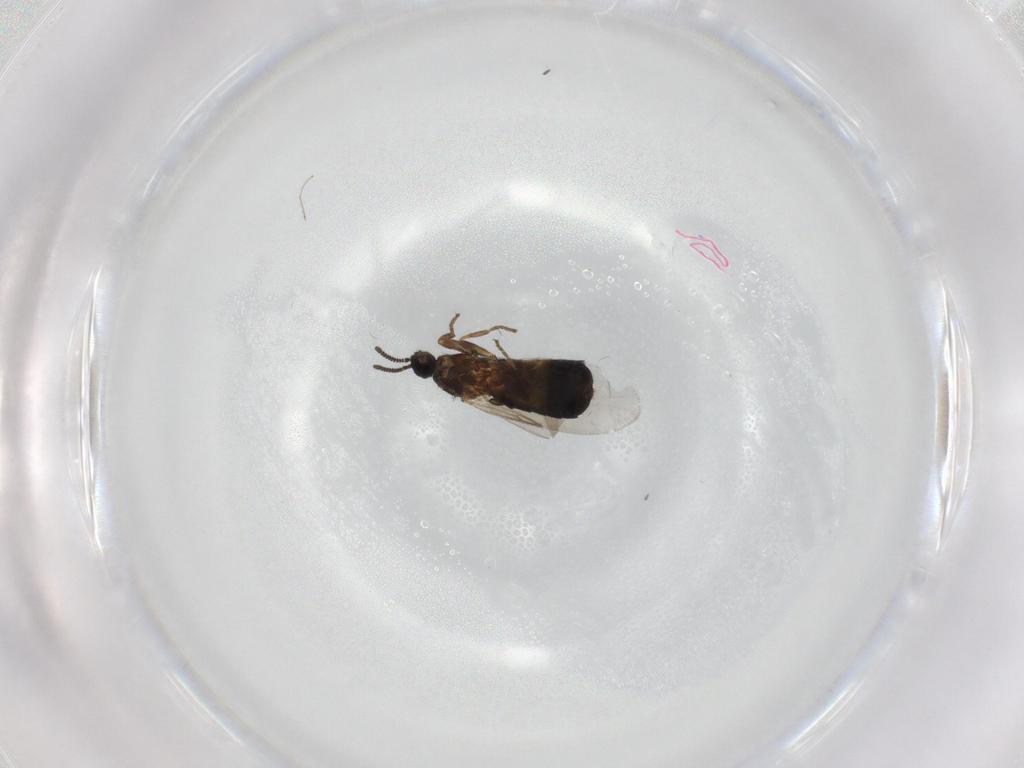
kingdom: Animalia
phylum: Arthropoda
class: Insecta
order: Diptera
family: Scatopsidae
